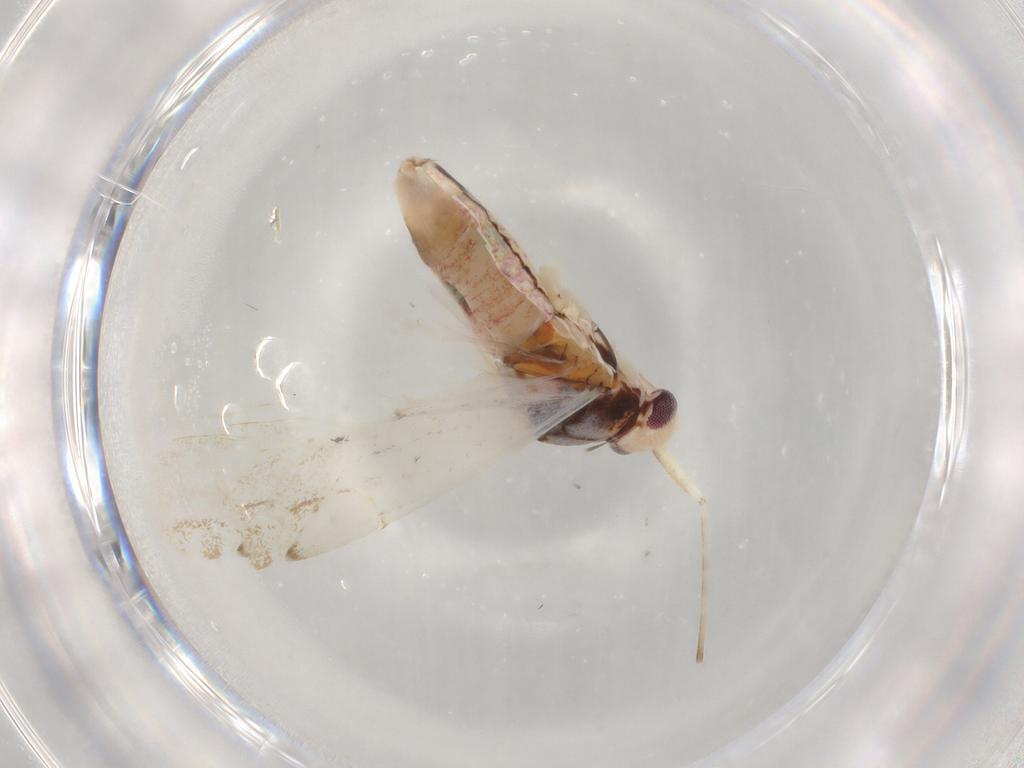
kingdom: Animalia
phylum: Arthropoda
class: Insecta
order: Hemiptera
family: Miridae
